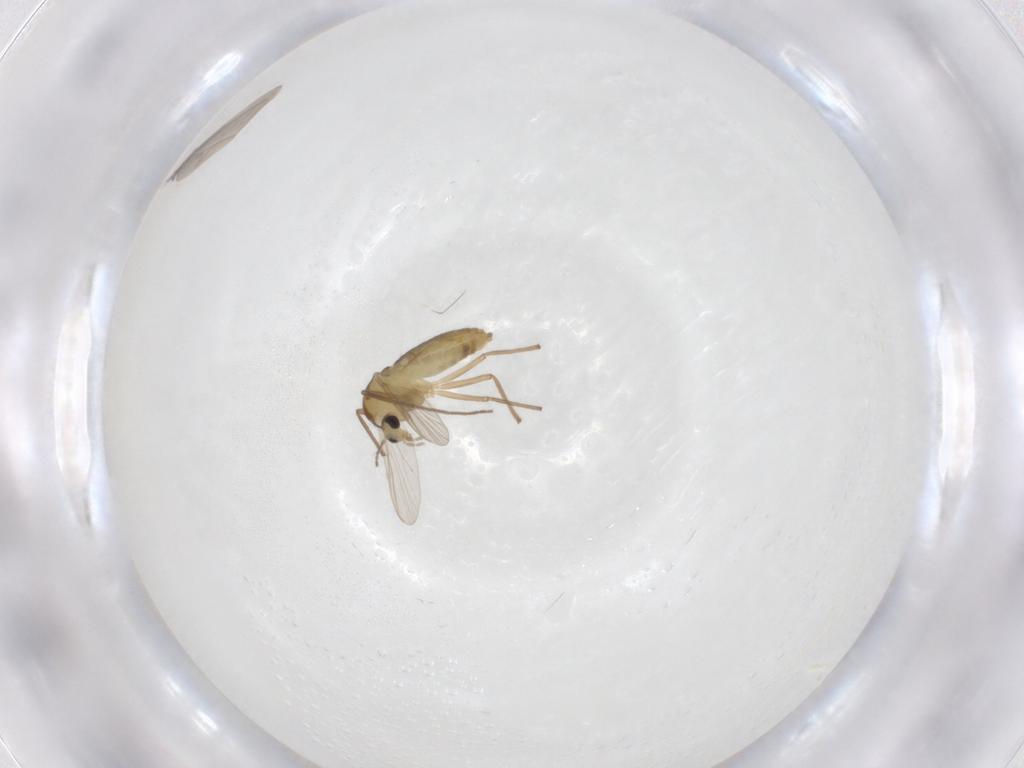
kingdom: Animalia
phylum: Arthropoda
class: Insecta
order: Diptera
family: Chironomidae
